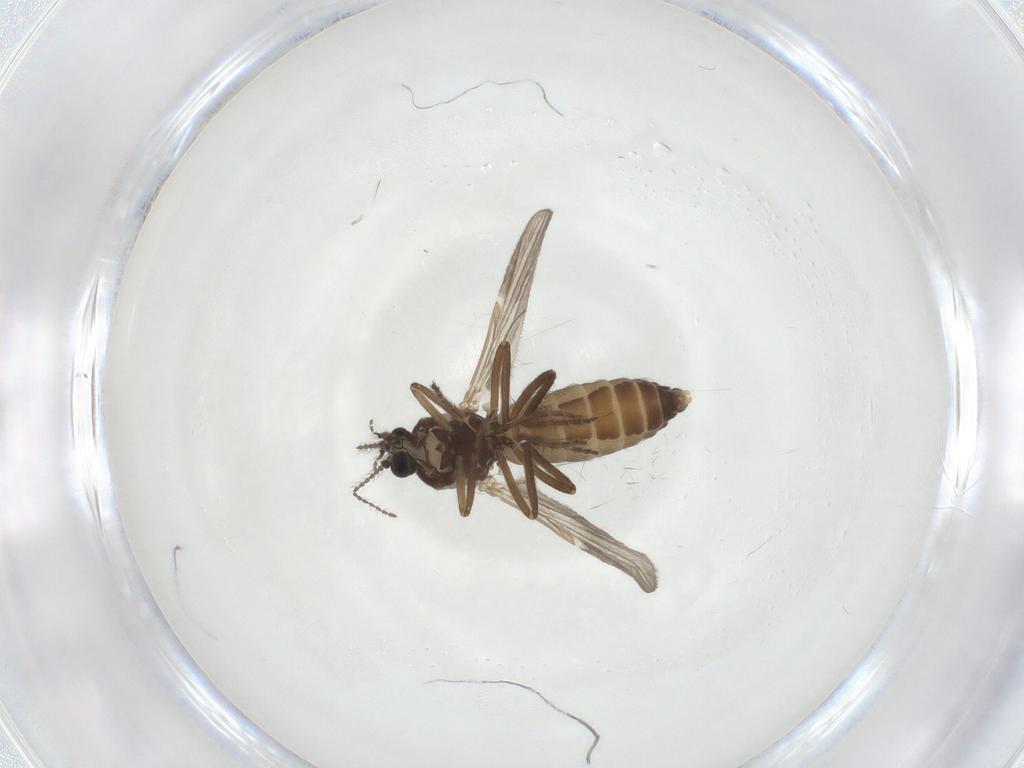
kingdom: Animalia
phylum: Arthropoda
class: Insecta
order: Diptera
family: Ceratopogonidae
